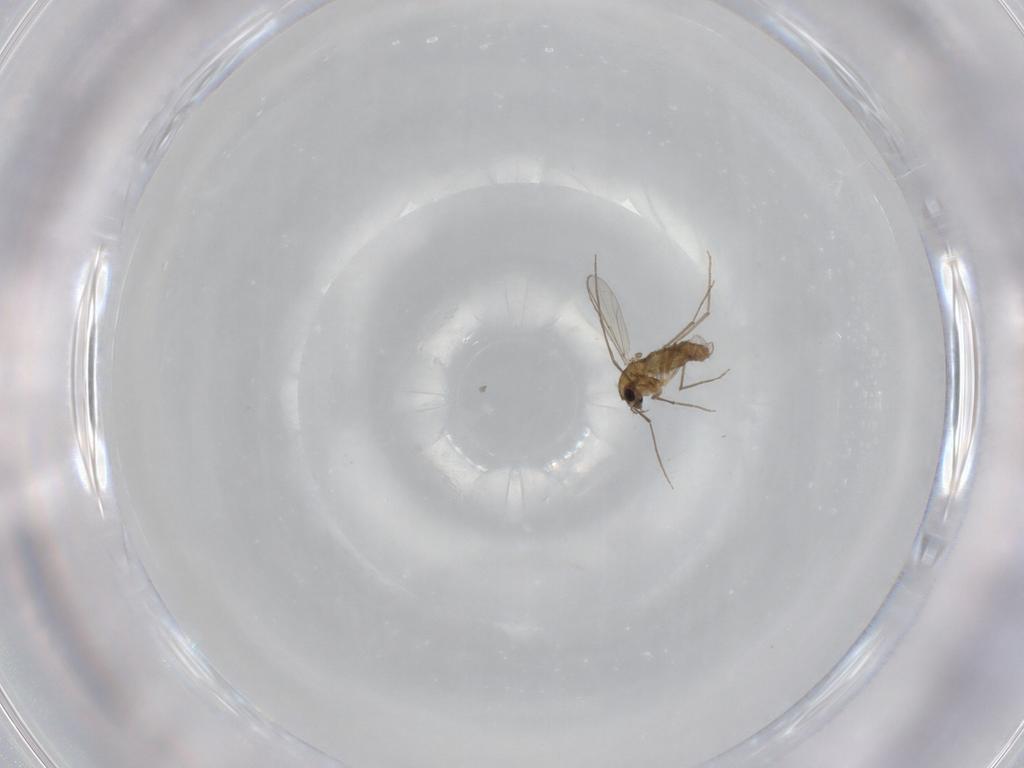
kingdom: Animalia
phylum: Arthropoda
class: Insecta
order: Diptera
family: Chironomidae
